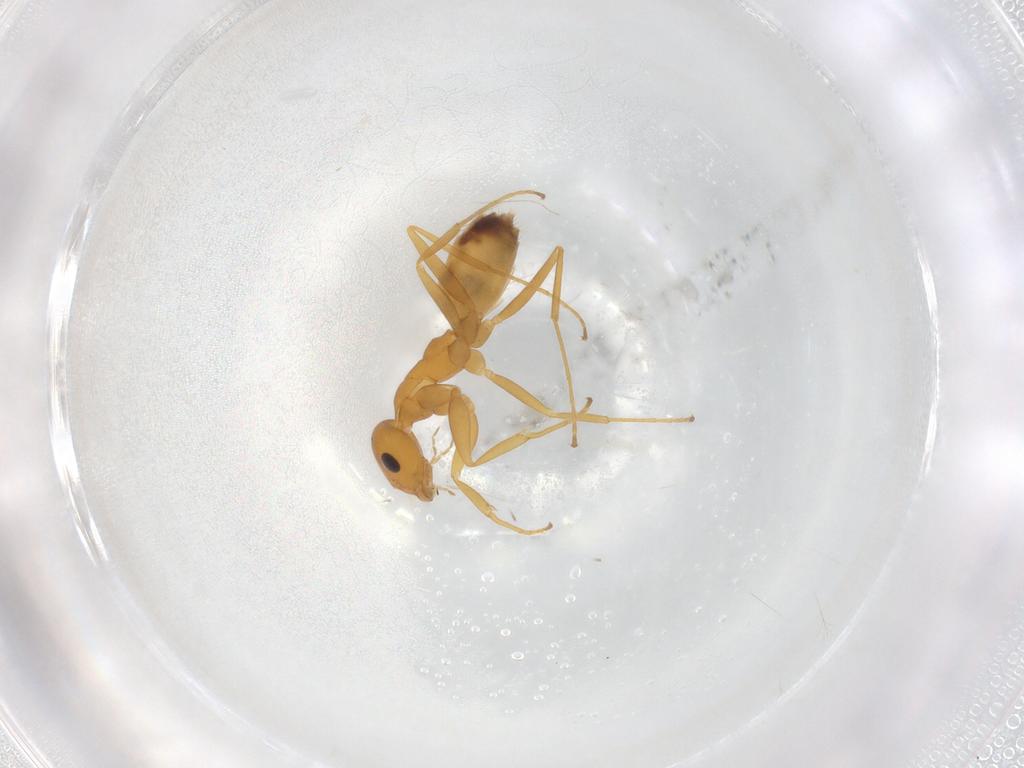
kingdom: Animalia
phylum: Arthropoda
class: Insecta
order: Hymenoptera
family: Formicidae
